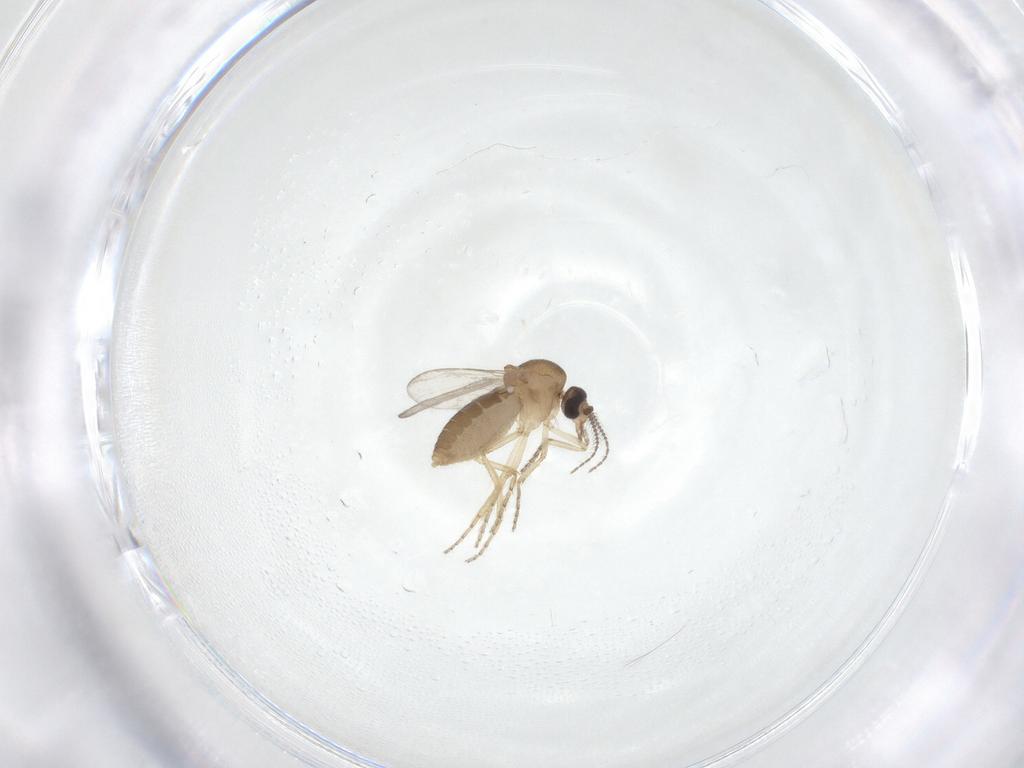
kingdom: Animalia
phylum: Arthropoda
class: Insecta
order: Diptera
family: Ceratopogonidae
